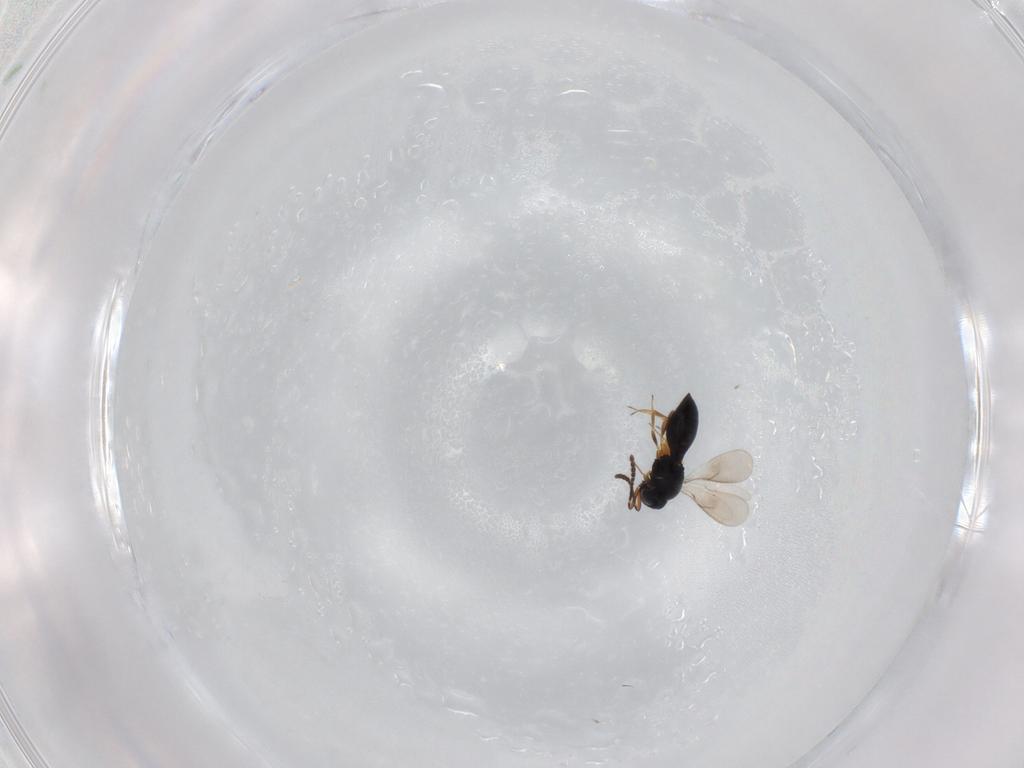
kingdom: Animalia
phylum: Arthropoda
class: Insecta
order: Hymenoptera
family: Scelionidae
